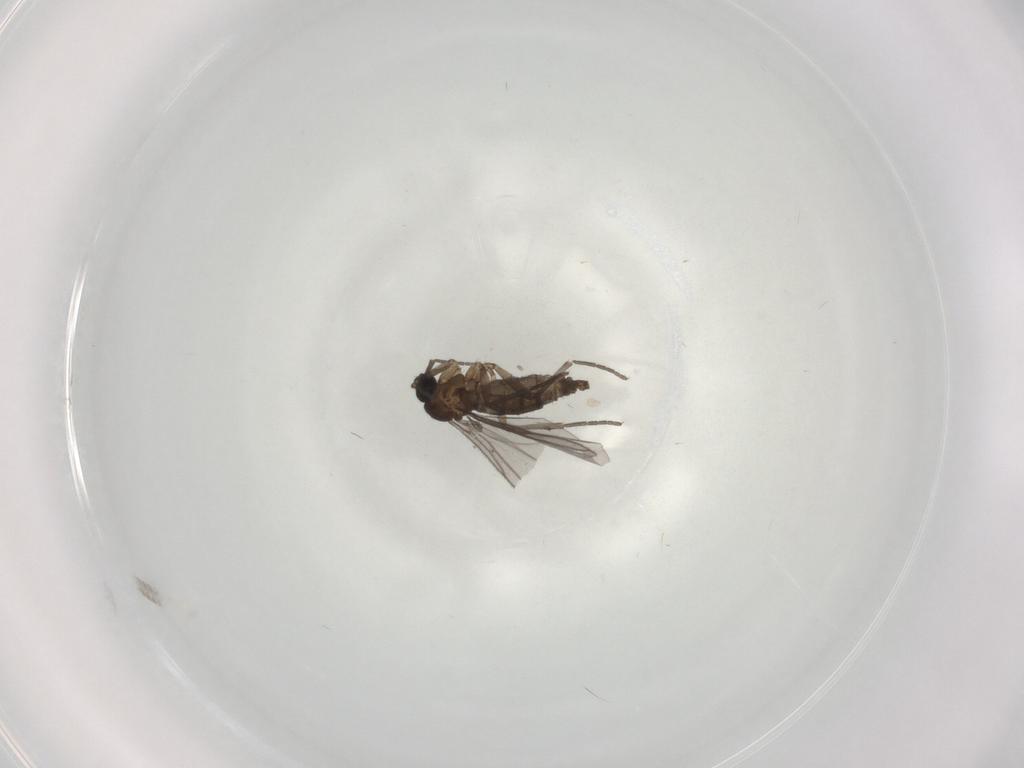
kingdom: Animalia
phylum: Arthropoda
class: Insecta
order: Diptera
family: Cecidomyiidae
